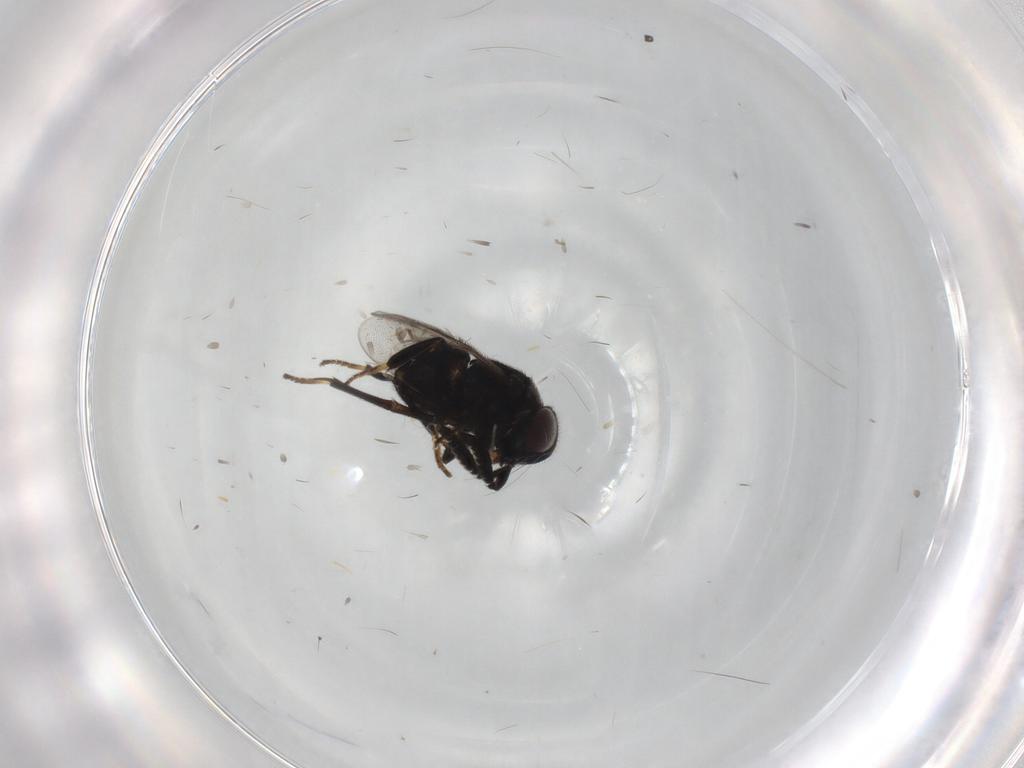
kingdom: Animalia
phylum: Arthropoda
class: Insecta
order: Hymenoptera
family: Encyrtidae
